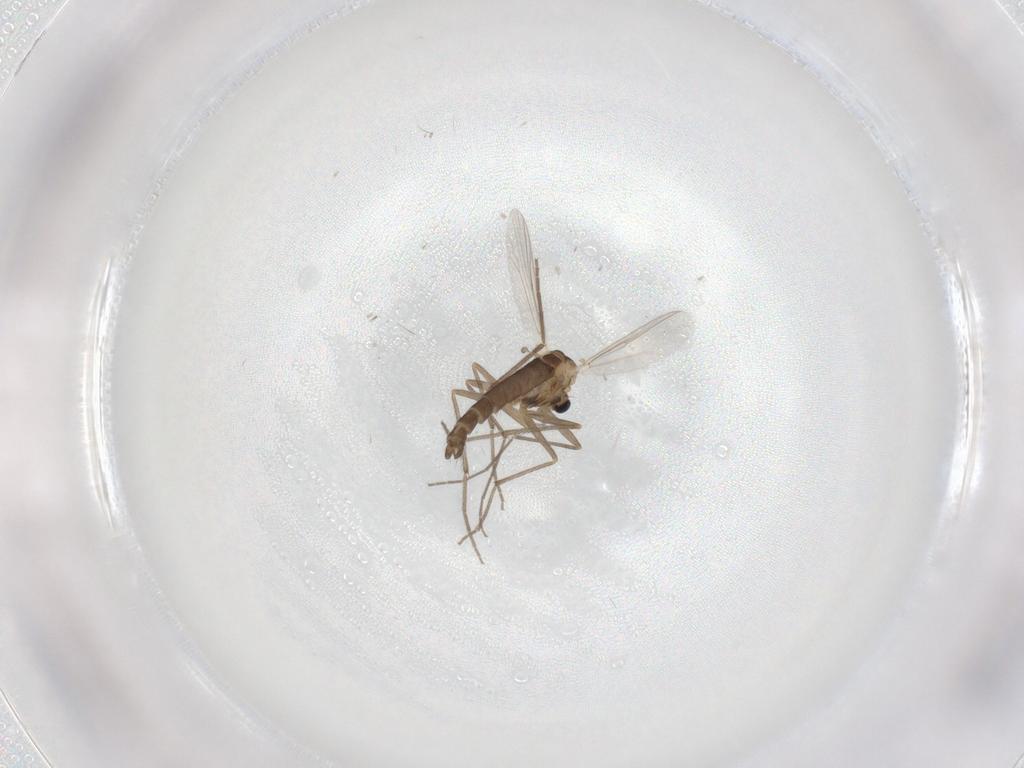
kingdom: Animalia
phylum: Arthropoda
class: Insecta
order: Diptera
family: Chironomidae
